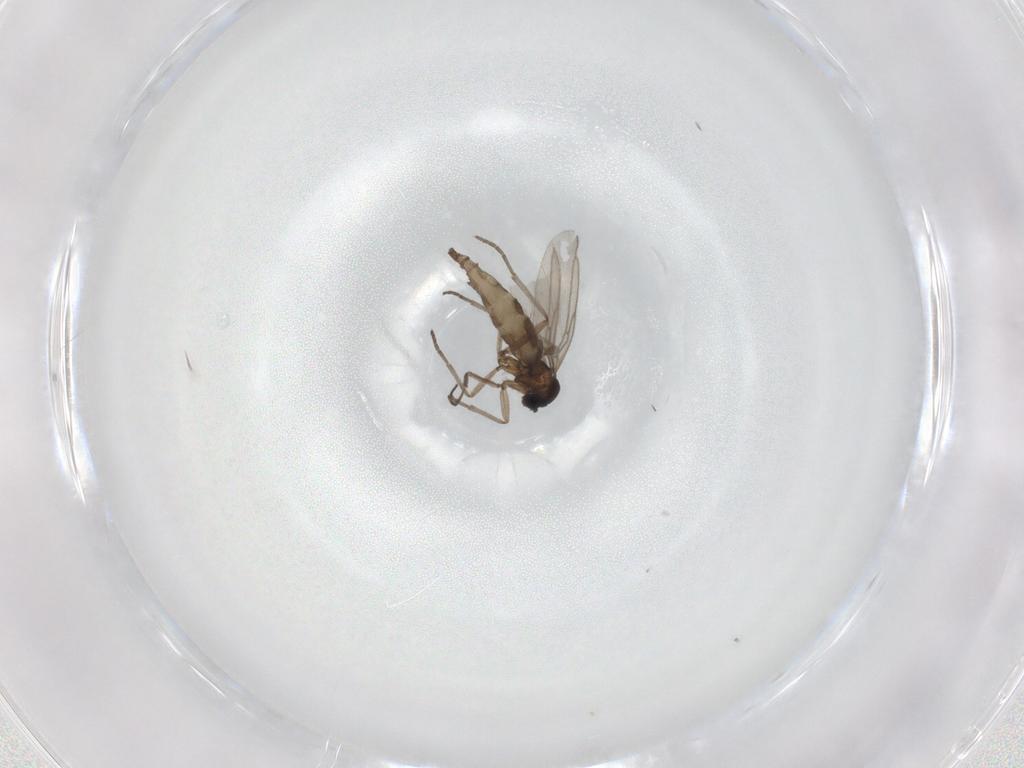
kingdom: Animalia
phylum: Arthropoda
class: Insecta
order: Diptera
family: Cecidomyiidae
